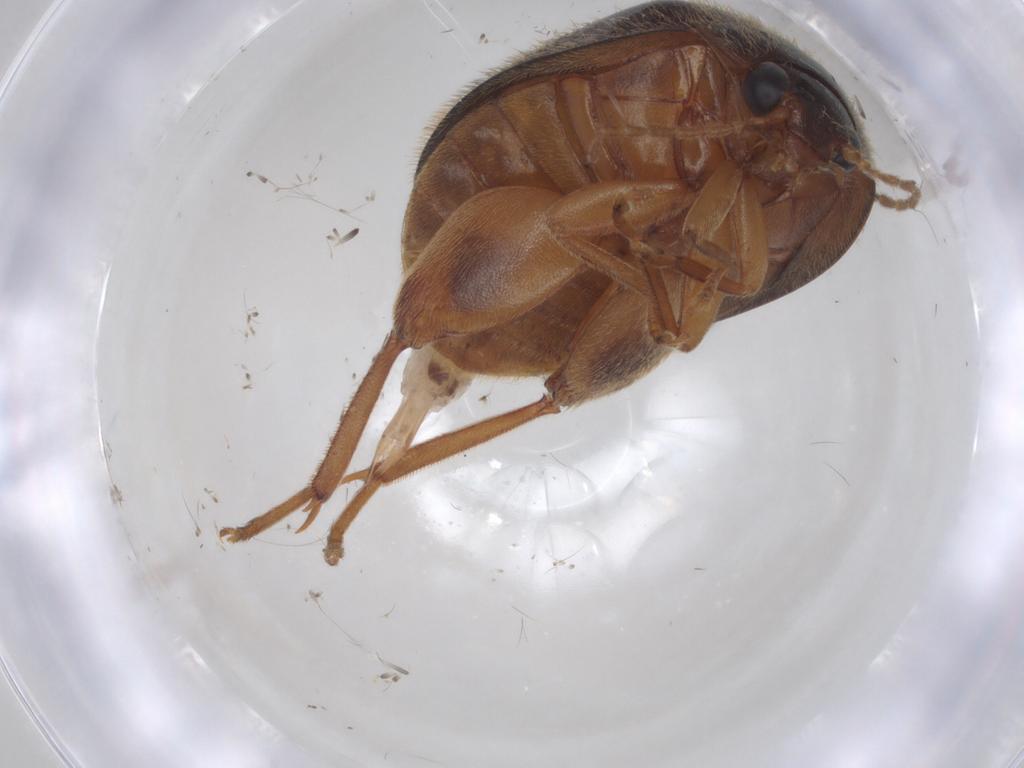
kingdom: Animalia
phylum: Arthropoda
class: Insecta
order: Coleoptera
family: Scirtidae
